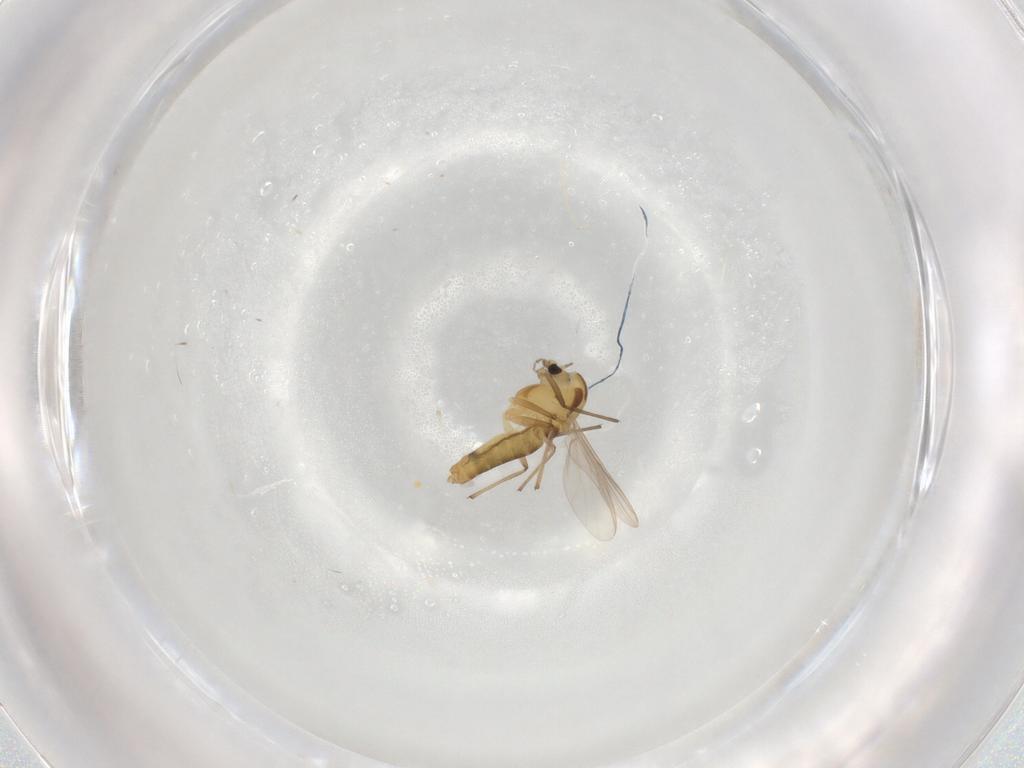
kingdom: Animalia
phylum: Arthropoda
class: Insecta
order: Diptera
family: Chironomidae
